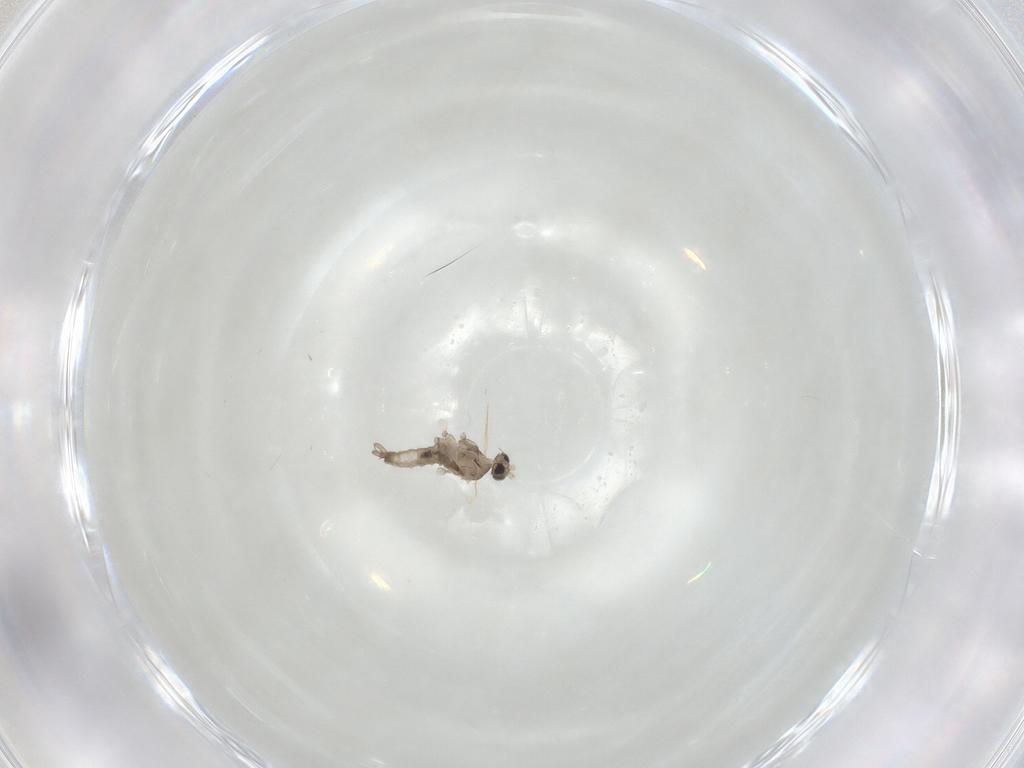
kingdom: Animalia
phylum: Arthropoda
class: Insecta
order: Diptera
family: Cecidomyiidae
